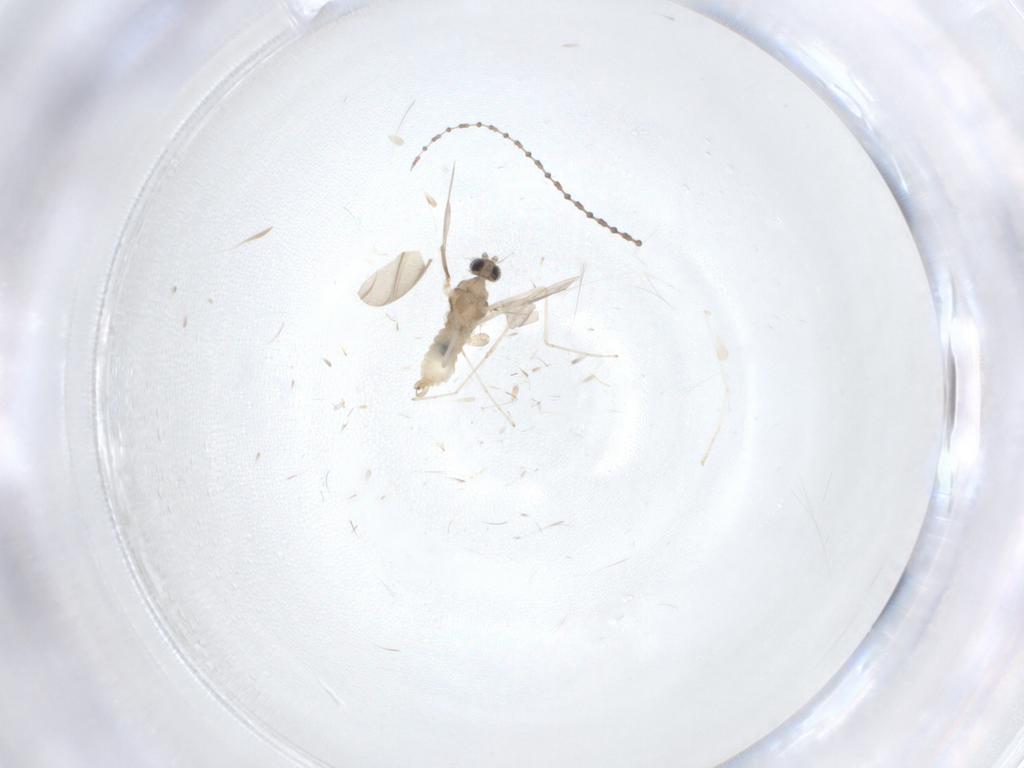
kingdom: Animalia
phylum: Arthropoda
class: Insecta
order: Diptera
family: Cecidomyiidae
